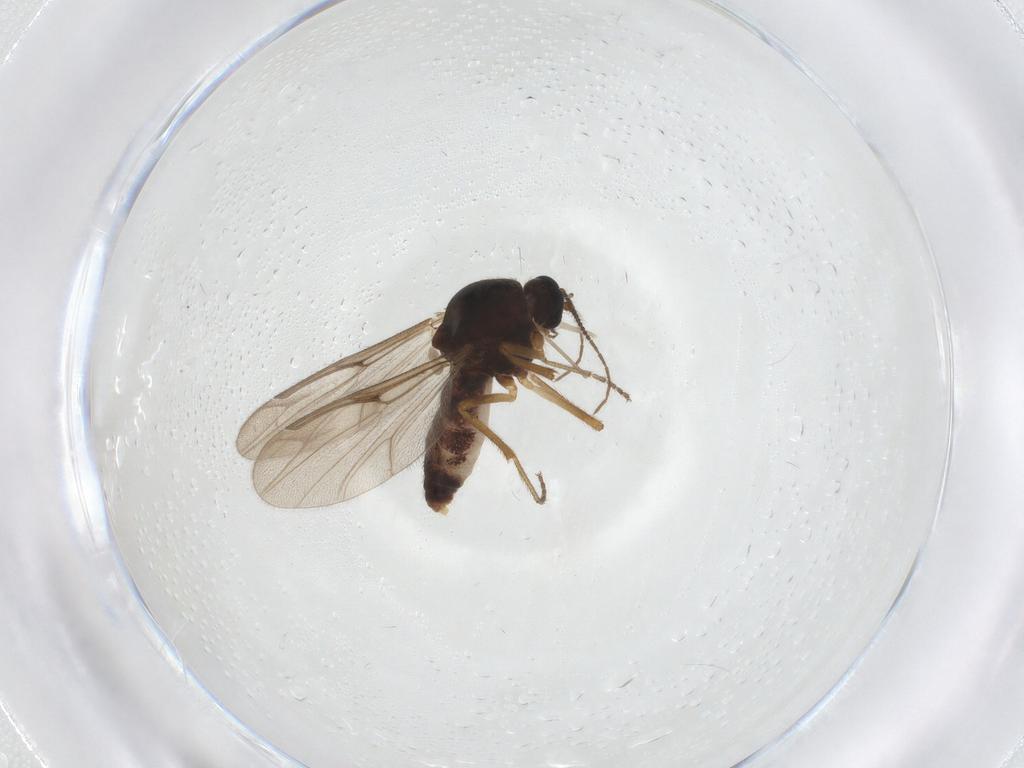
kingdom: Animalia
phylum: Arthropoda
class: Insecta
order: Diptera
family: Ceratopogonidae
